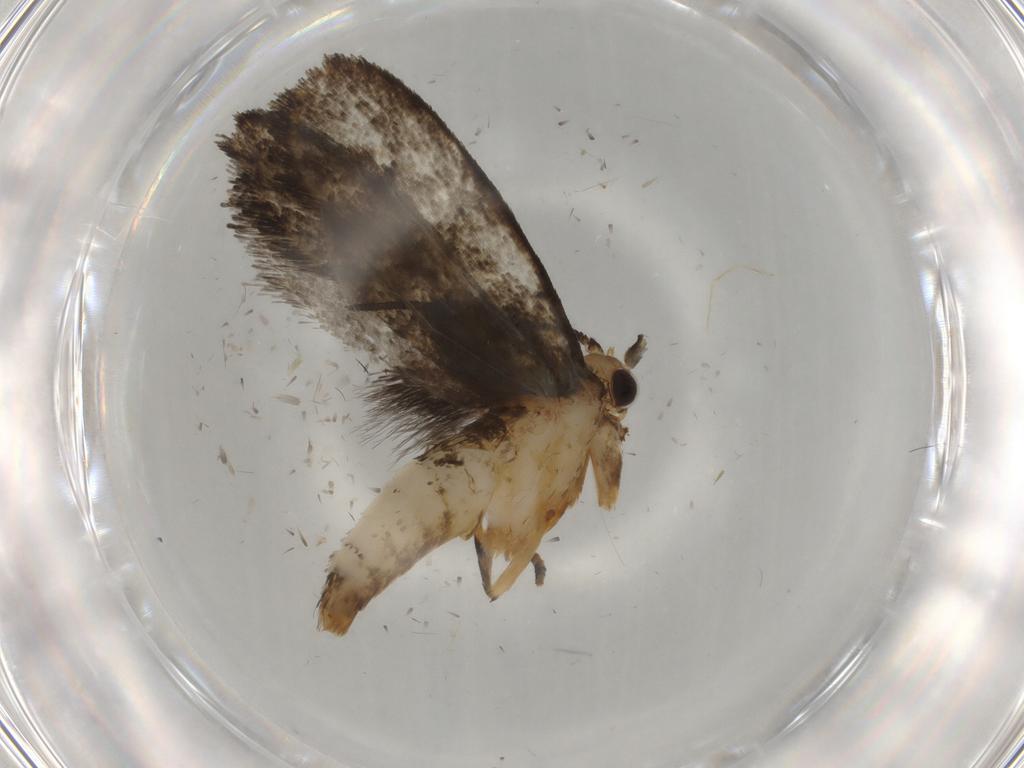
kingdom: Animalia
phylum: Arthropoda
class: Insecta
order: Lepidoptera
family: Tineidae
